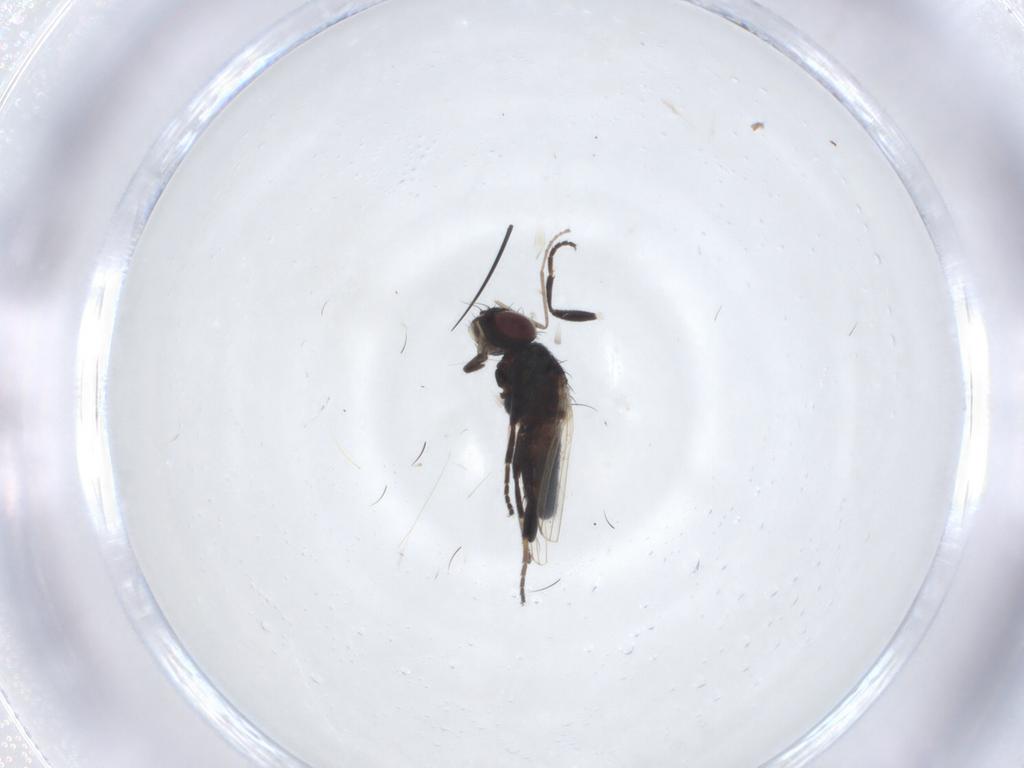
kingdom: Animalia
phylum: Arthropoda
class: Insecta
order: Diptera
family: Milichiidae
